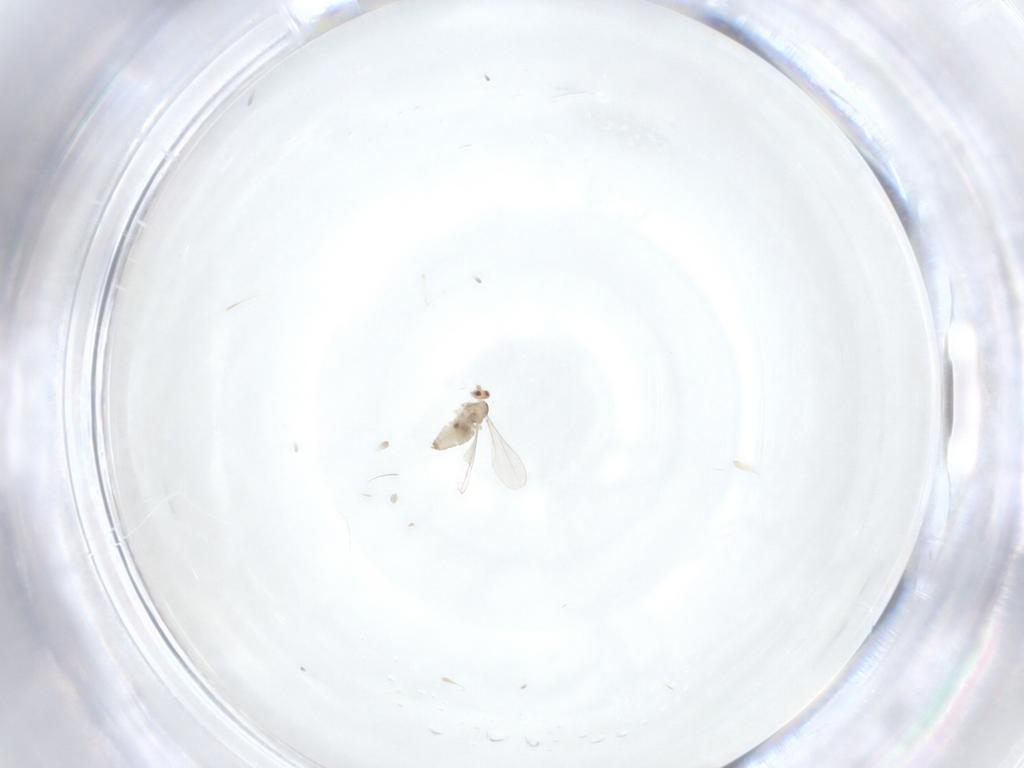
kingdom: Animalia
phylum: Arthropoda
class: Insecta
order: Diptera
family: Cecidomyiidae
